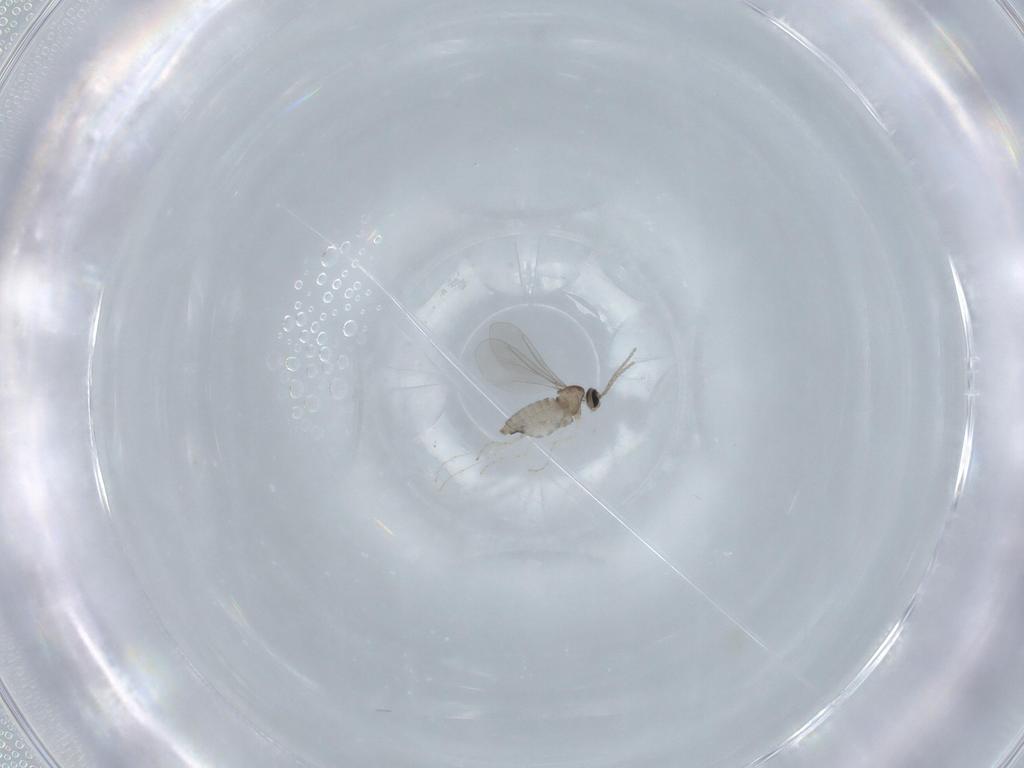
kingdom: Animalia
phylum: Arthropoda
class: Insecta
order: Diptera
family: Cecidomyiidae
